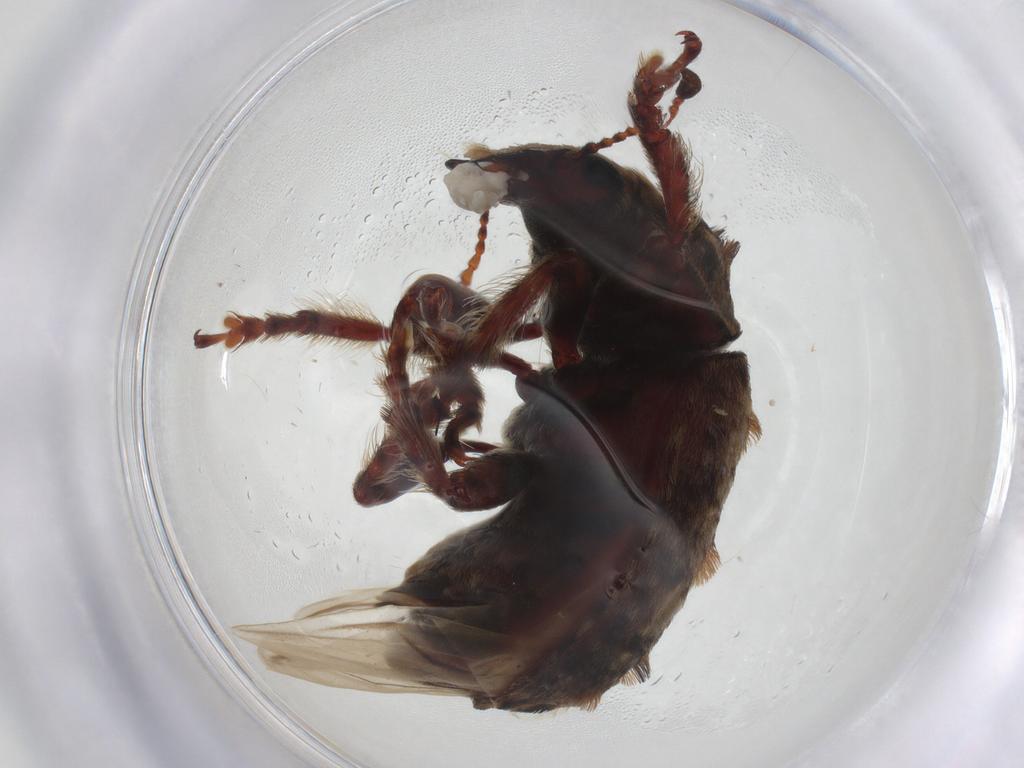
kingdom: Animalia
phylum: Arthropoda
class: Insecta
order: Coleoptera
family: Anthribidae
